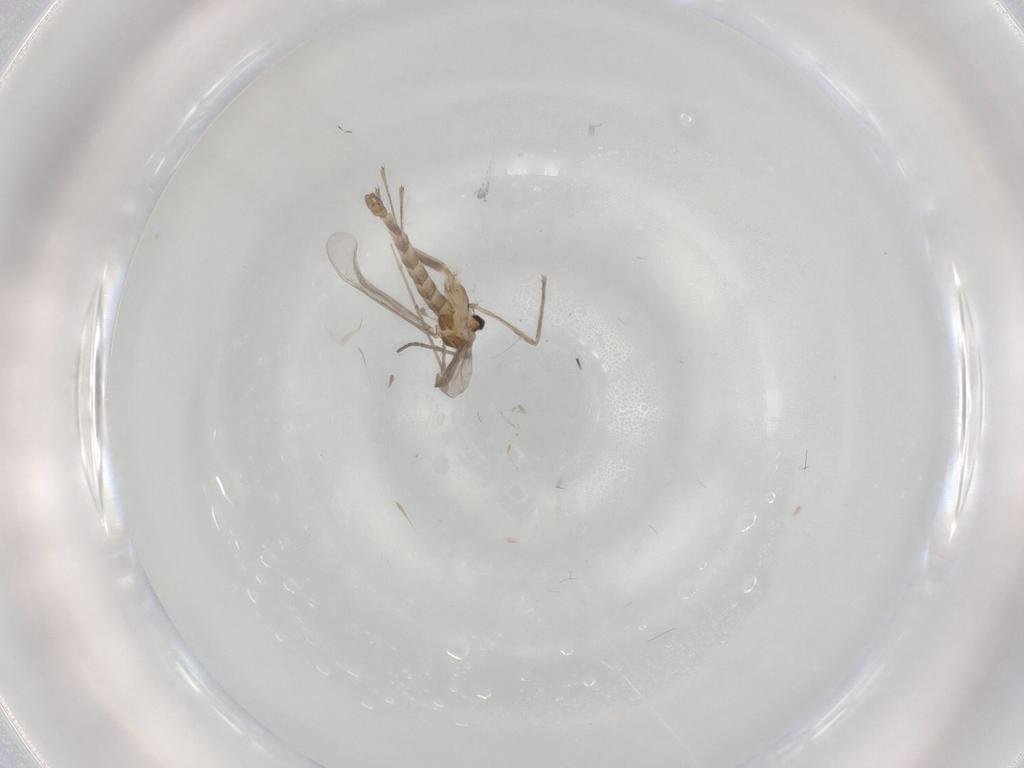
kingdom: Animalia
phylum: Arthropoda
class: Insecta
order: Diptera
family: Chironomidae
